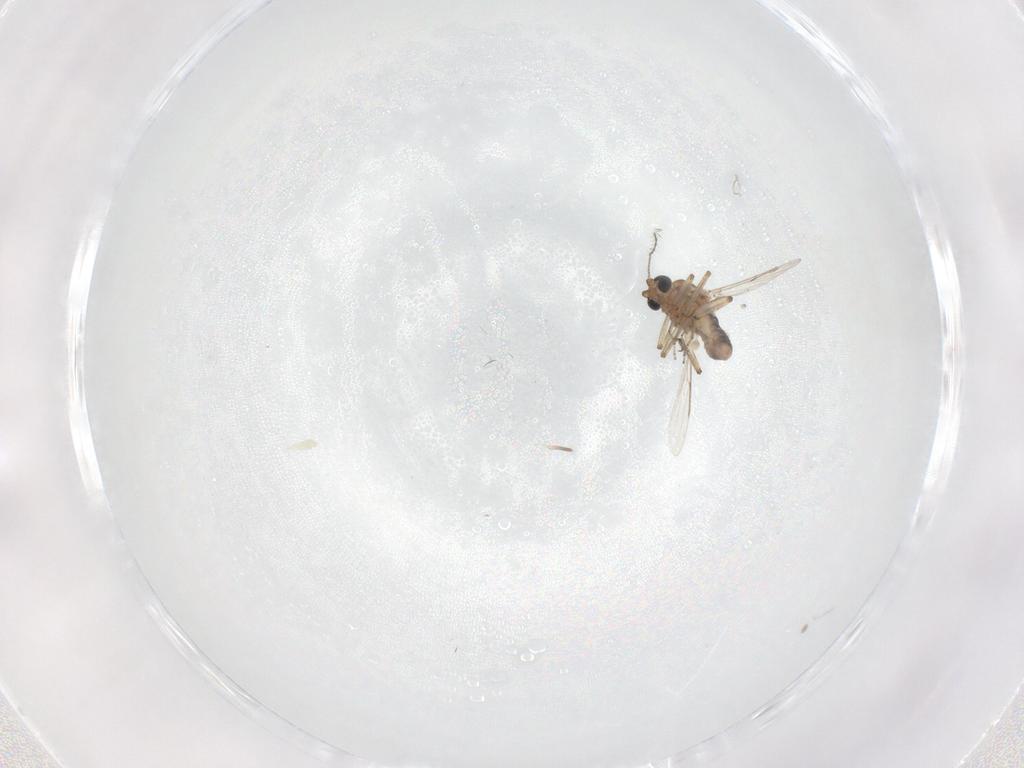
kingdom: Animalia
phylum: Arthropoda
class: Insecta
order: Diptera
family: Ceratopogonidae
